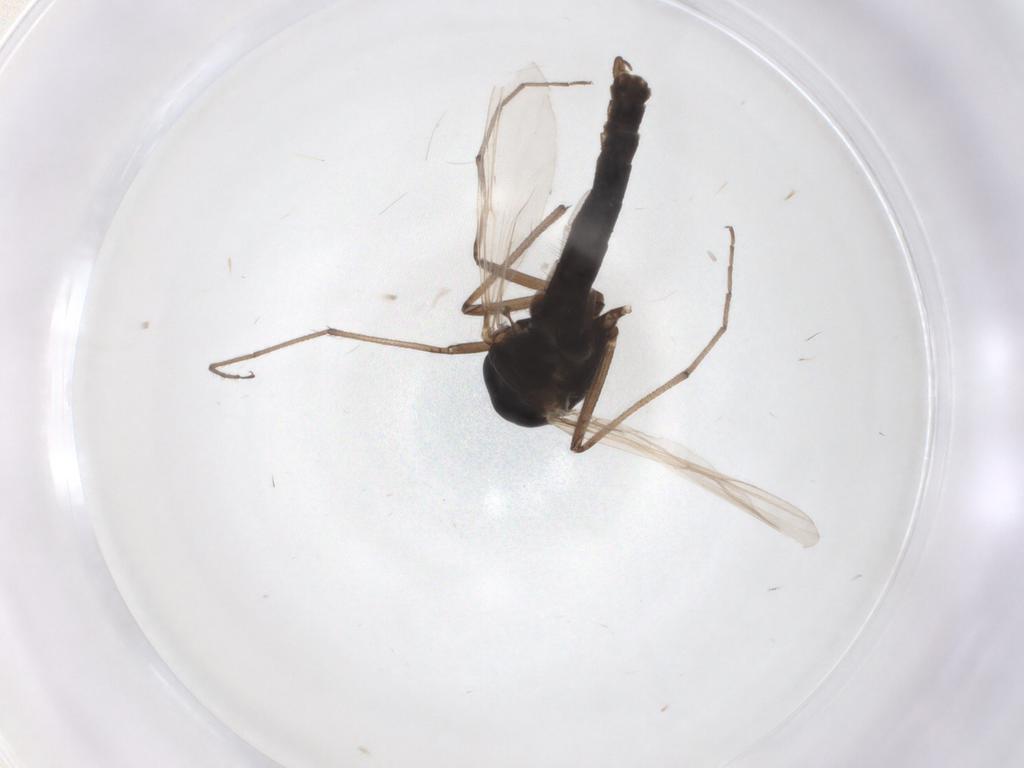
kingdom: Animalia
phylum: Arthropoda
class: Insecta
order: Diptera
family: Chironomidae
